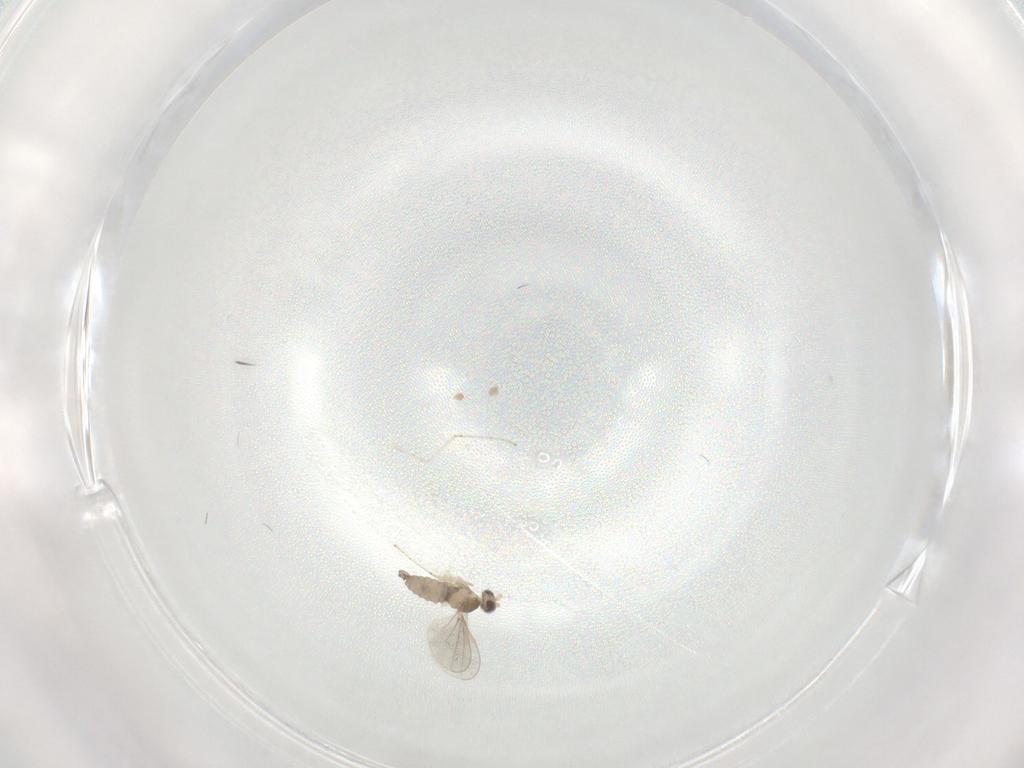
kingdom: Animalia
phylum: Arthropoda
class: Insecta
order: Diptera
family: Cecidomyiidae
